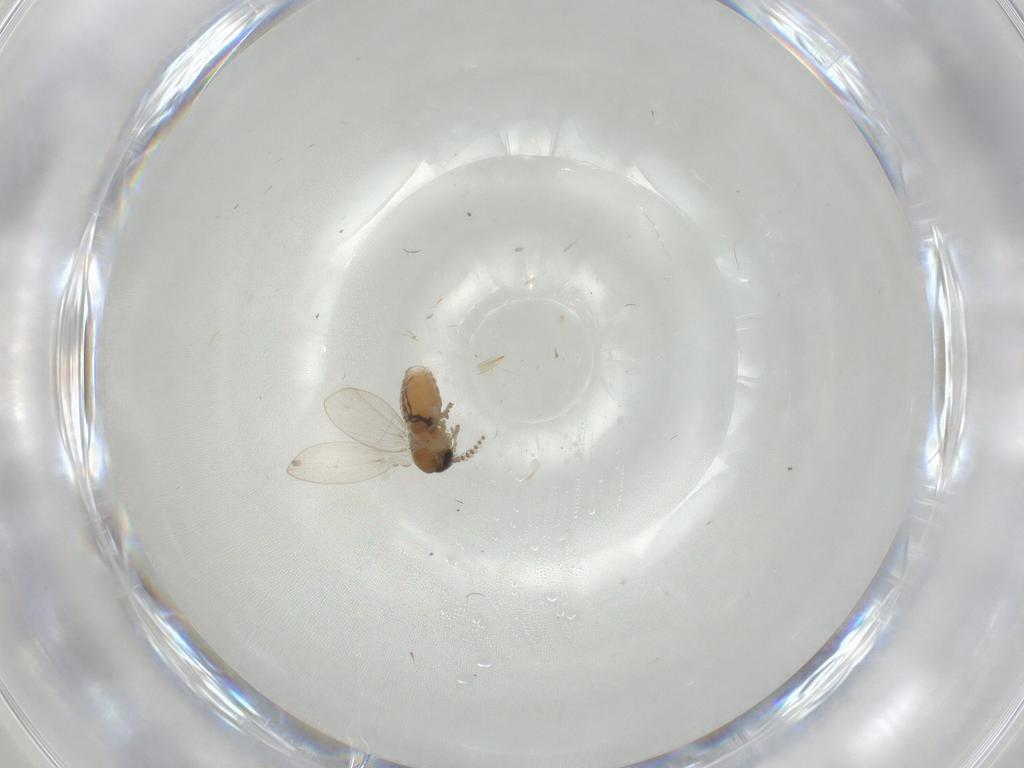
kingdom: Animalia
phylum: Arthropoda
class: Insecta
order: Diptera
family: Psychodidae
